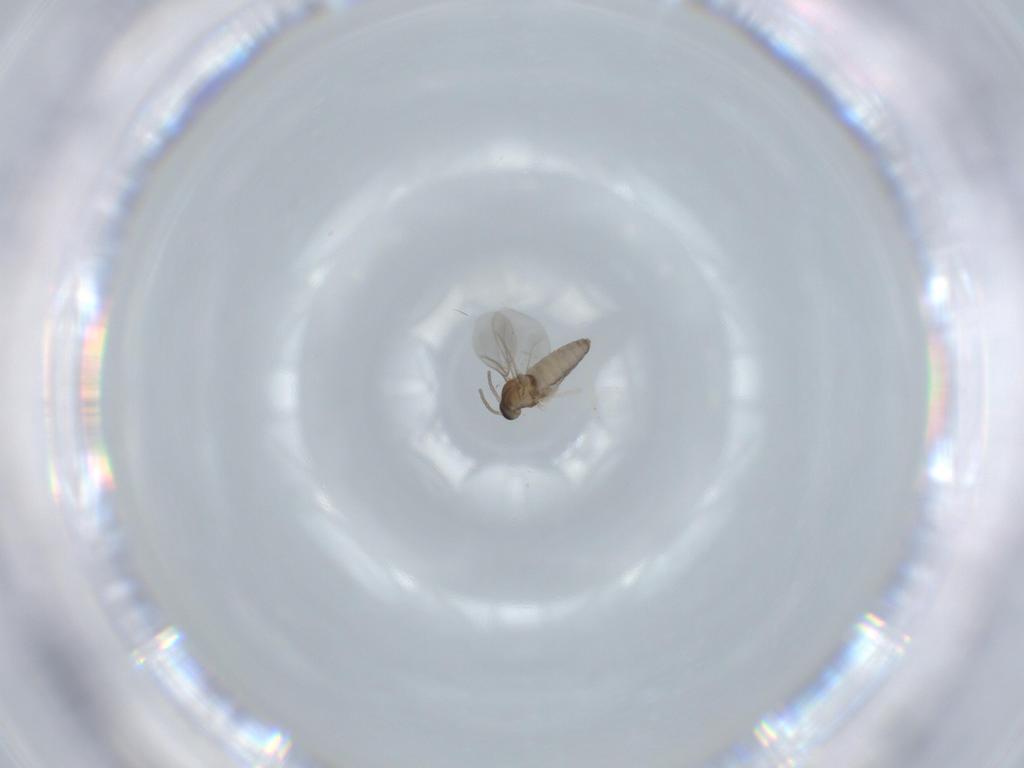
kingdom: Animalia
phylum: Arthropoda
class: Insecta
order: Diptera
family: Cecidomyiidae
